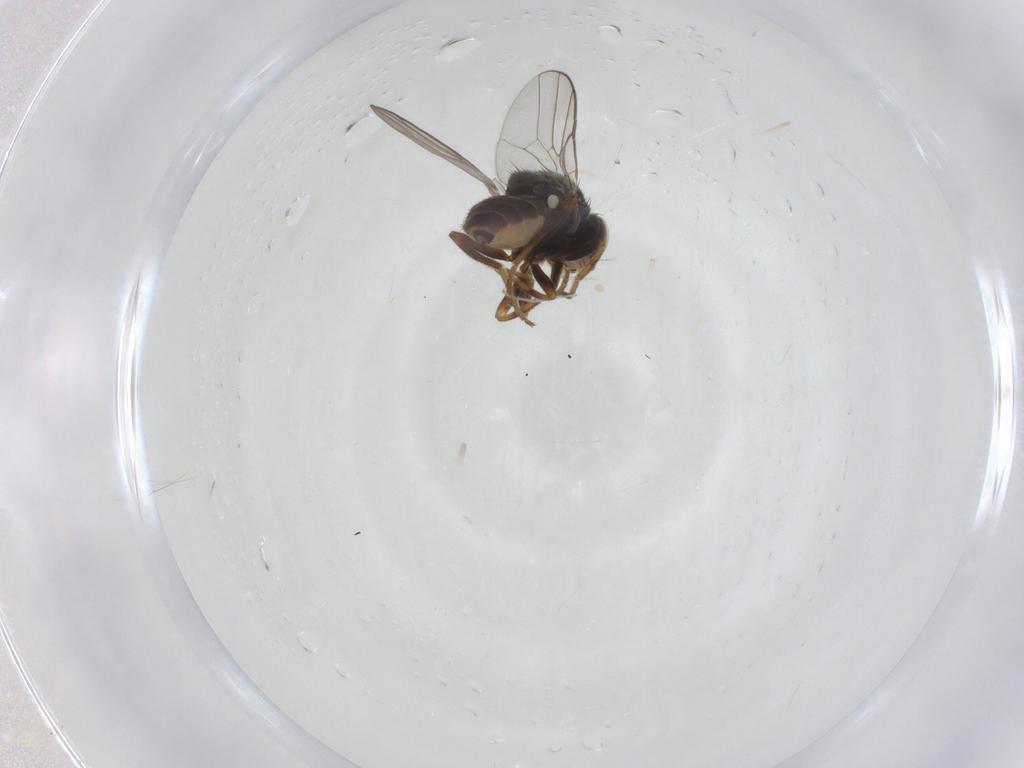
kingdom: Animalia
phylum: Arthropoda
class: Insecta
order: Diptera
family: Chloropidae
